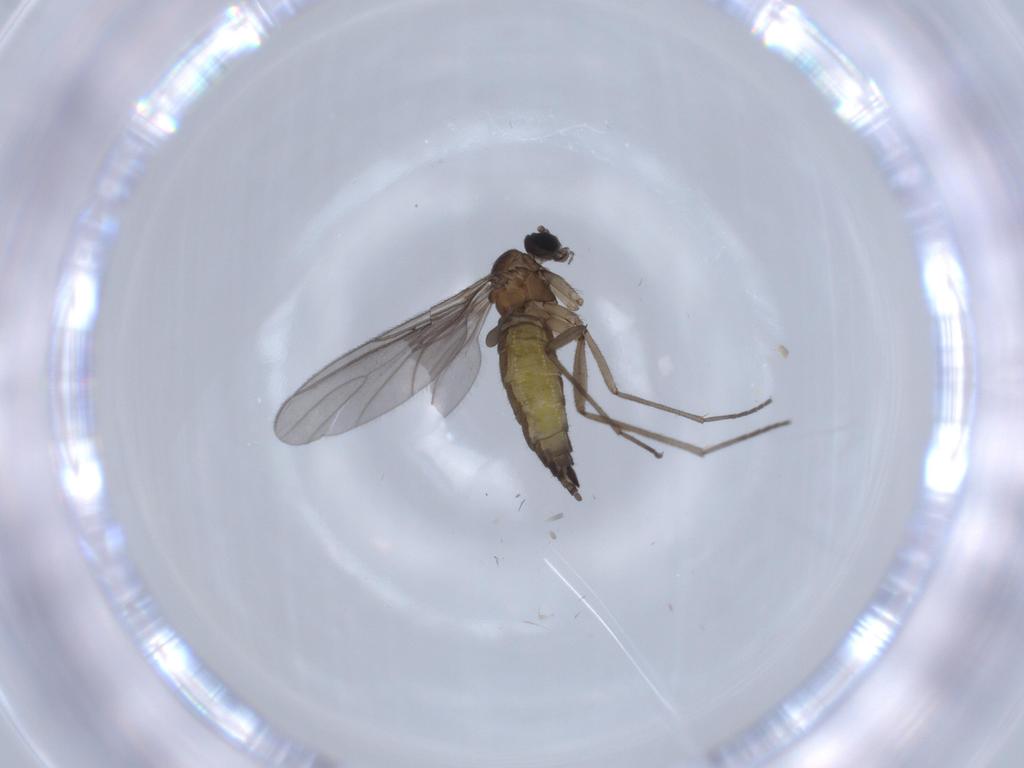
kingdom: Animalia
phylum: Arthropoda
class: Insecta
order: Diptera
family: Sciaridae
